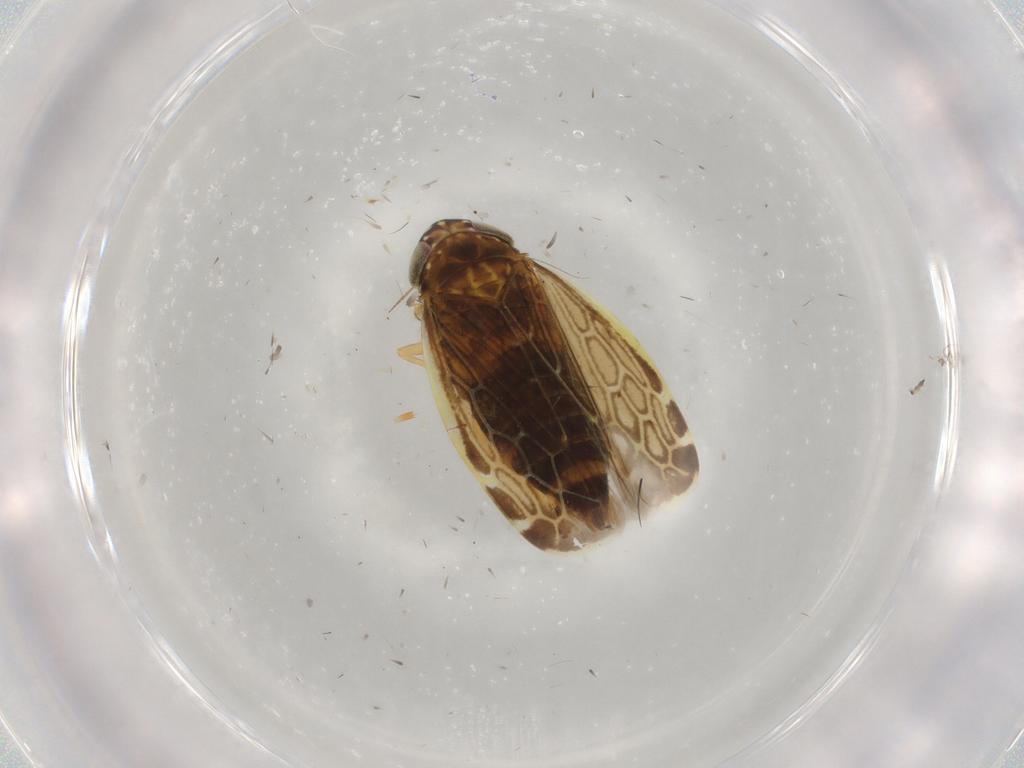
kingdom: Animalia
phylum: Arthropoda
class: Insecta
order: Hemiptera
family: Cicadellidae
